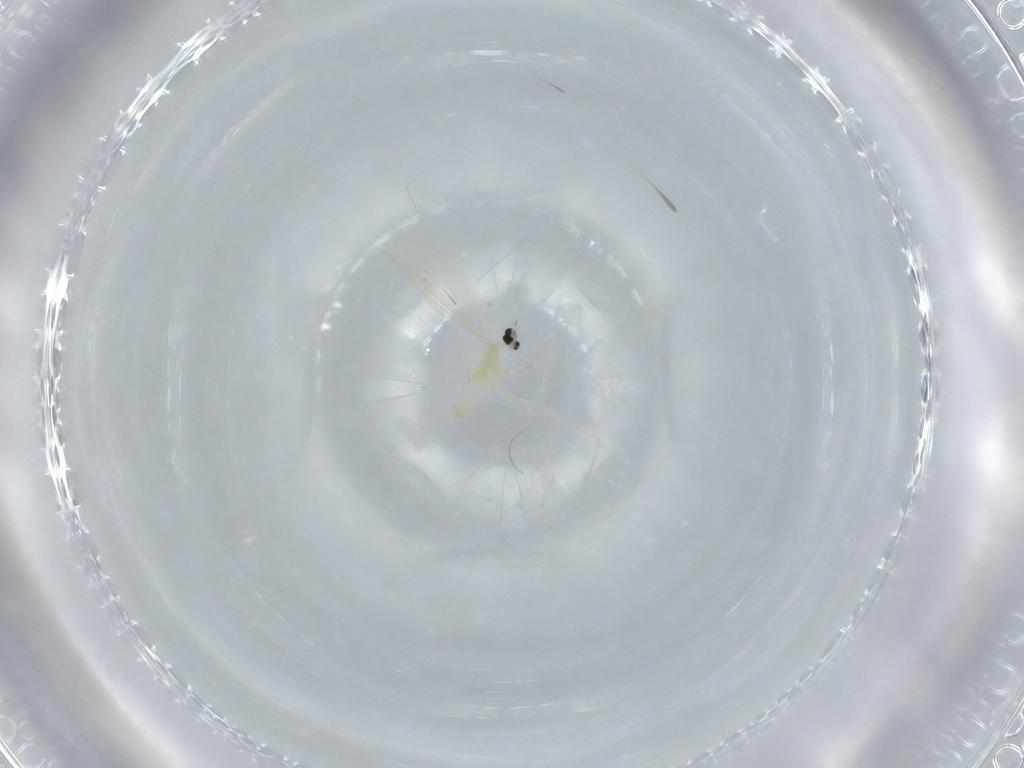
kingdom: Animalia
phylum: Arthropoda
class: Insecta
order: Diptera
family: Cecidomyiidae
